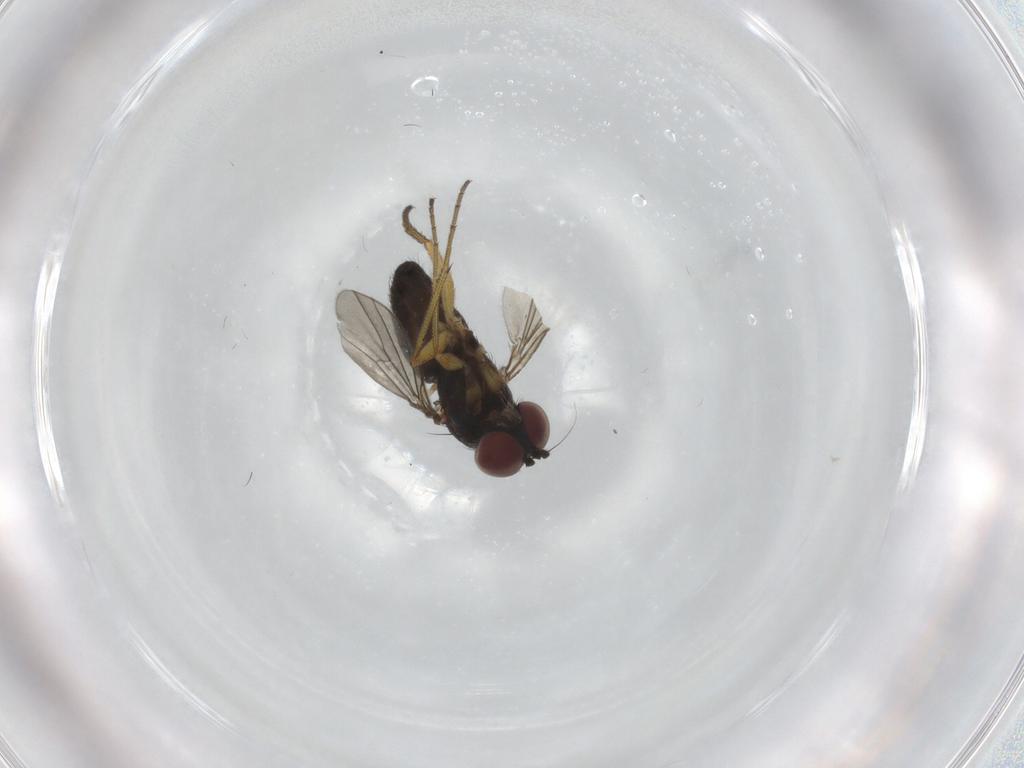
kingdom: Animalia
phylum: Arthropoda
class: Insecta
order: Diptera
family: Dolichopodidae
